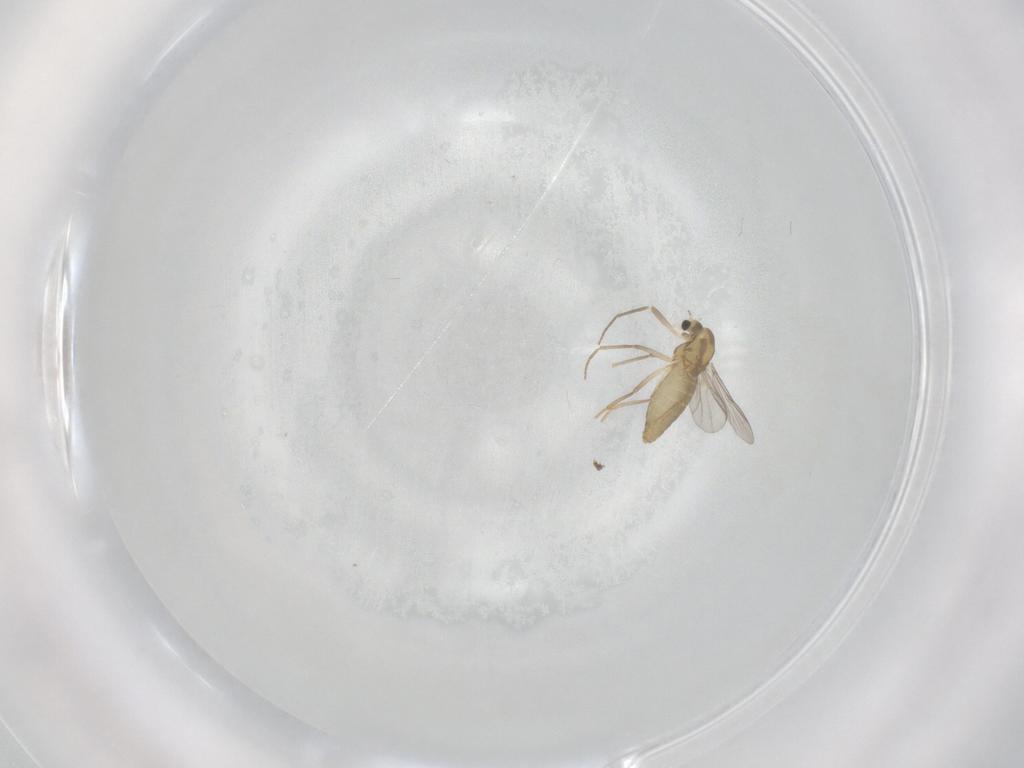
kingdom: Animalia
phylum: Arthropoda
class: Insecta
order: Diptera
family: Chironomidae
